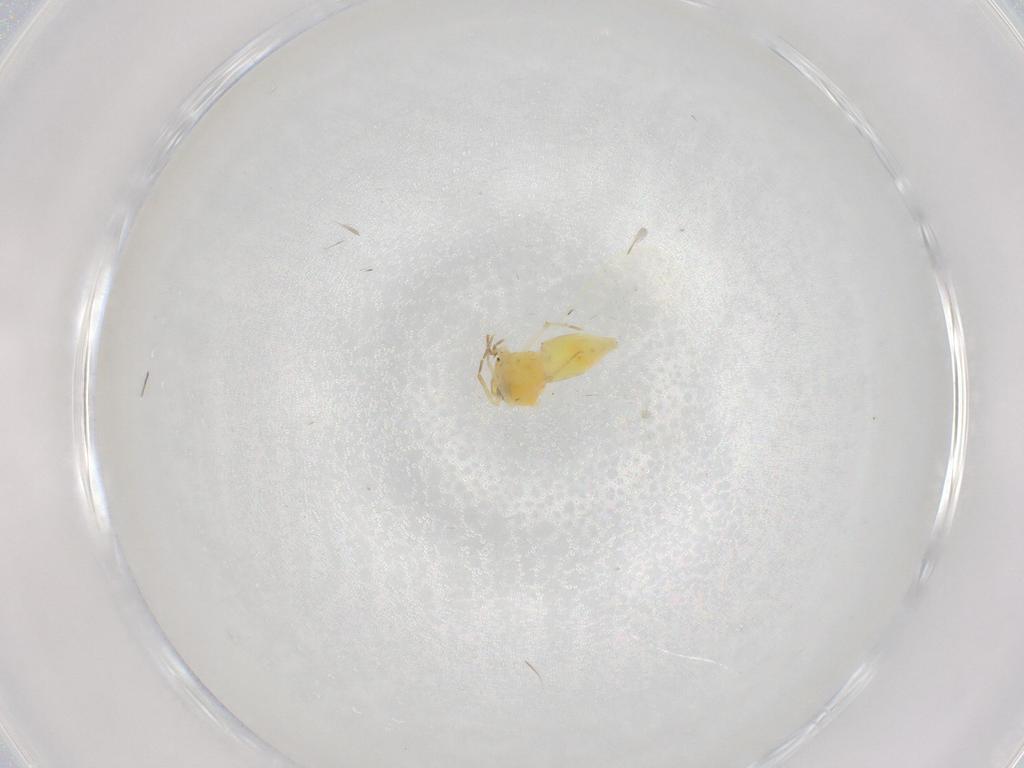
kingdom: Animalia
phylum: Arthropoda
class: Insecta
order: Hemiptera
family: Aleyrodidae
